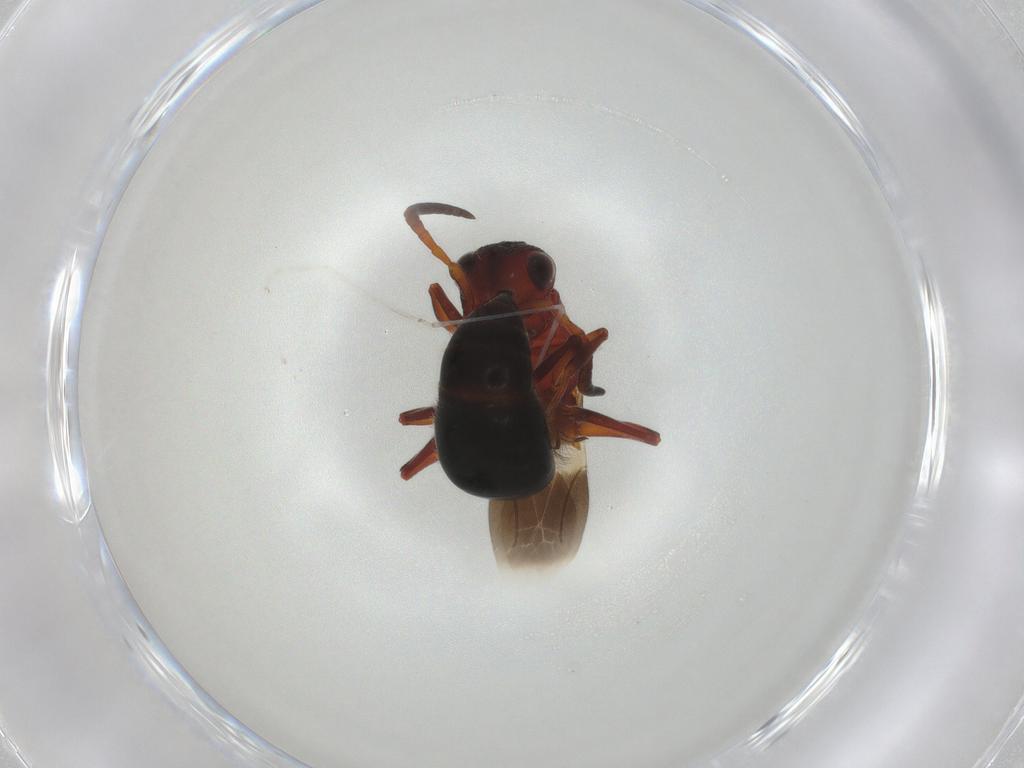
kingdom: Animalia
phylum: Arthropoda
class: Insecta
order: Hymenoptera
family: Bethylidae
